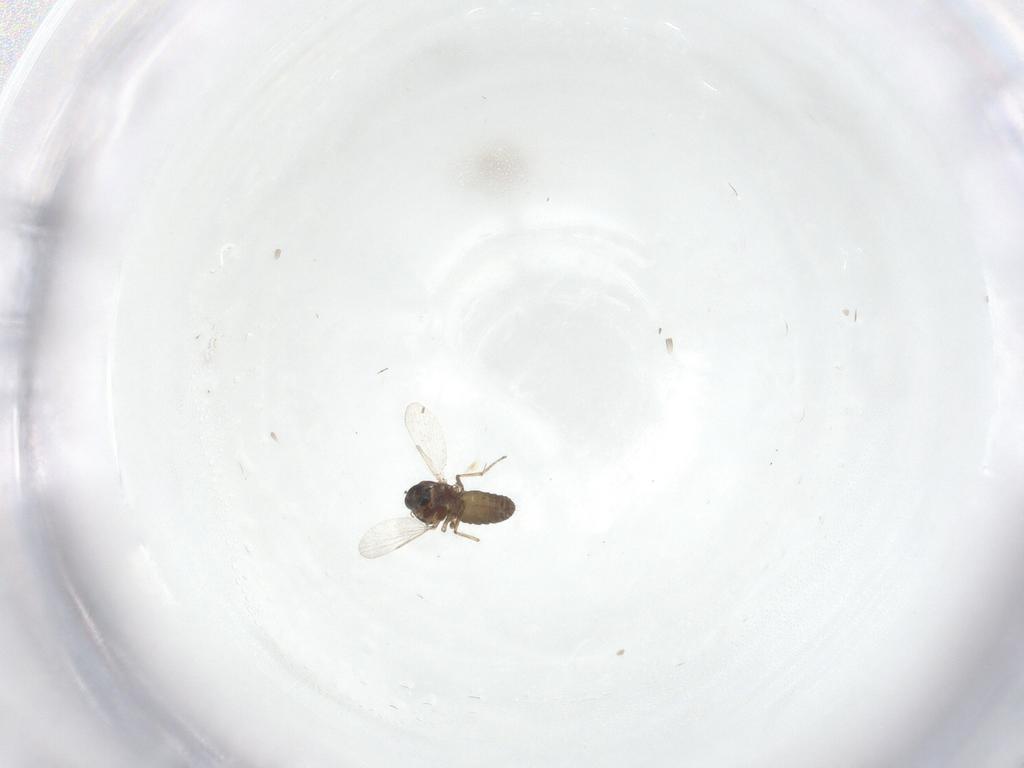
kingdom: Animalia
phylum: Arthropoda
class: Insecta
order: Diptera
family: Ceratopogonidae
